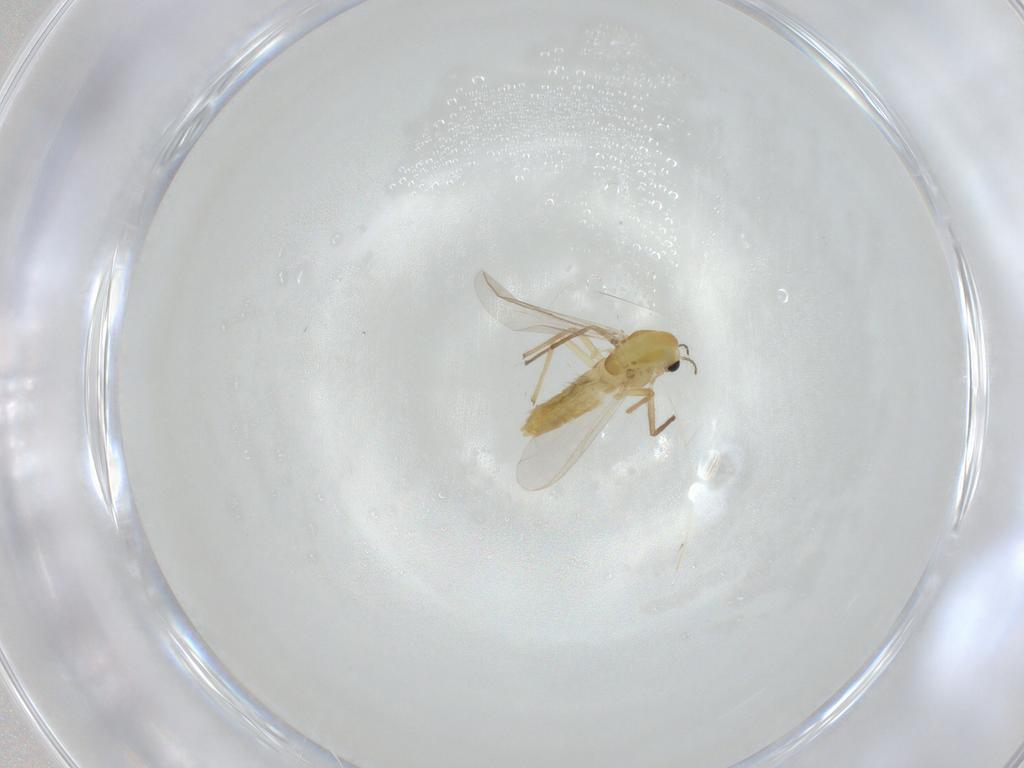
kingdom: Animalia
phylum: Arthropoda
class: Insecta
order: Diptera
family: Chironomidae
